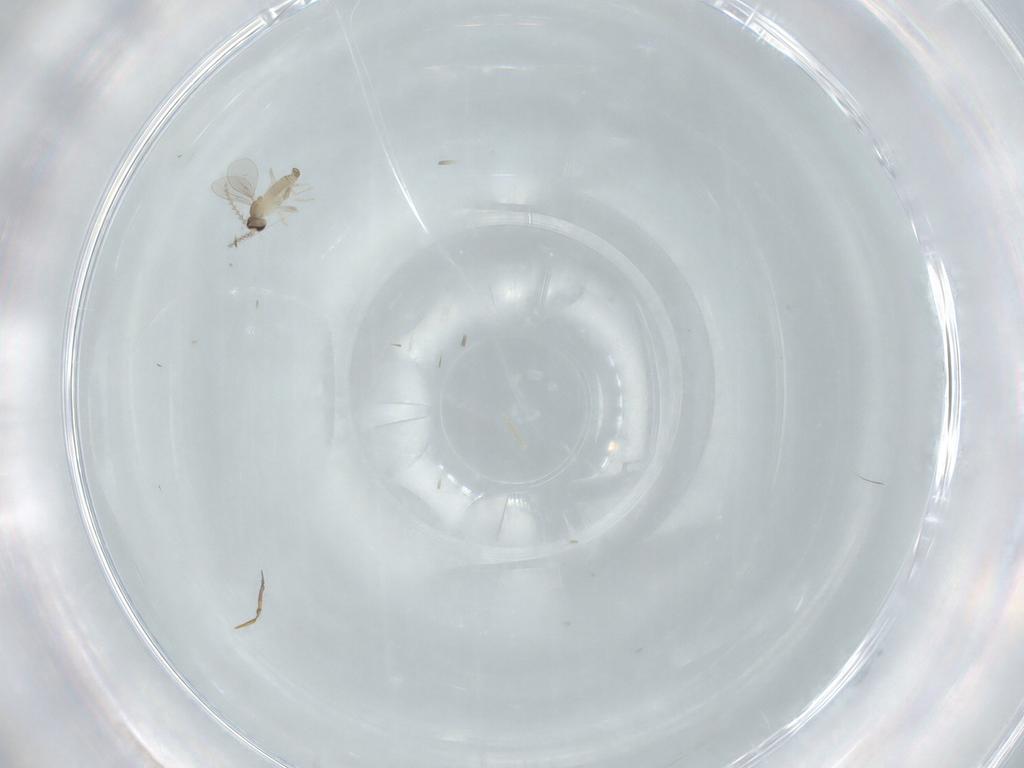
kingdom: Animalia
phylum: Arthropoda
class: Insecta
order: Diptera
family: Cecidomyiidae
